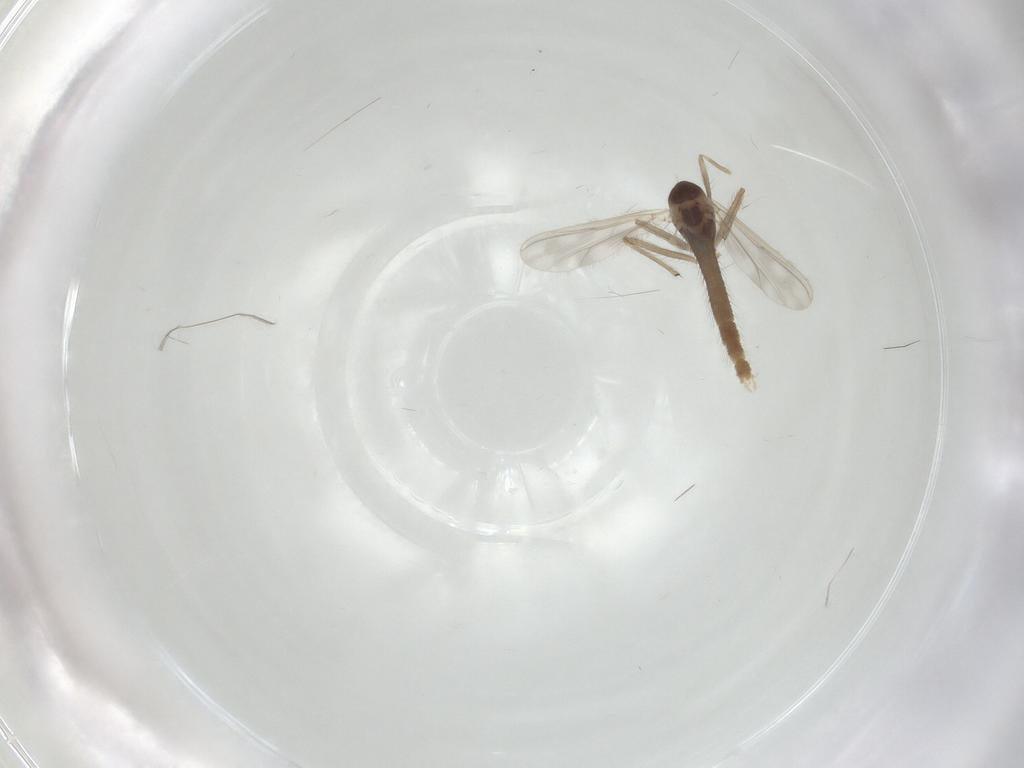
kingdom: Animalia
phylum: Arthropoda
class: Insecta
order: Diptera
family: Chironomidae
